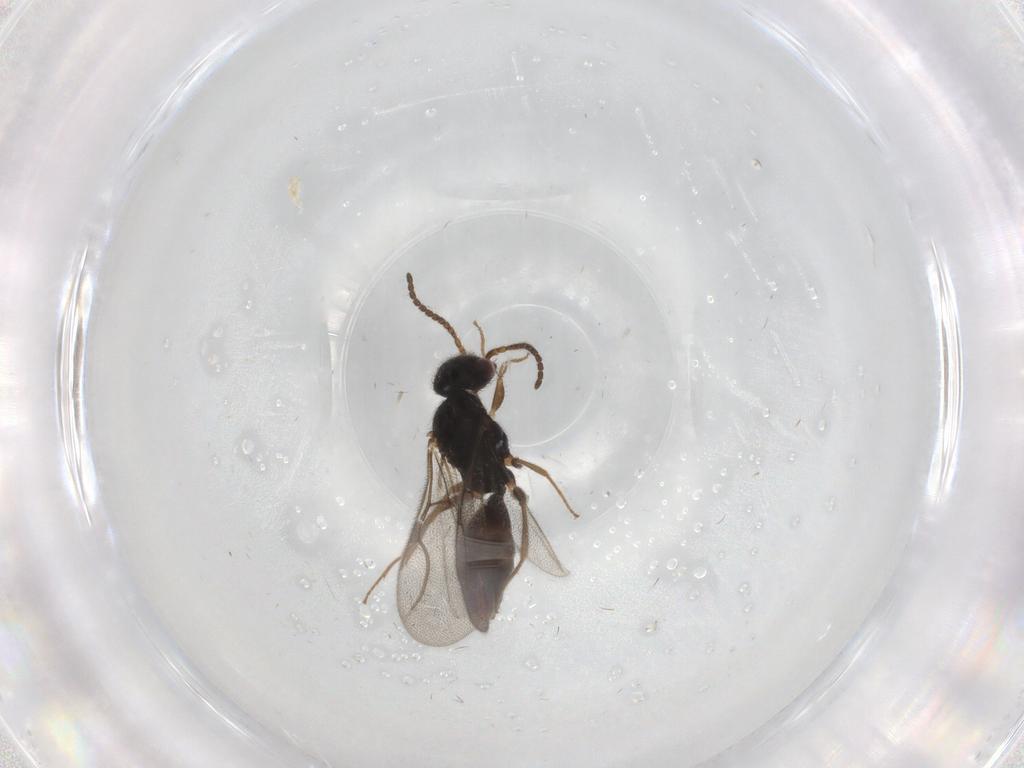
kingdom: Animalia
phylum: Arthropoda
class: Insecta
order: Hymenoptera
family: Bethylidae
